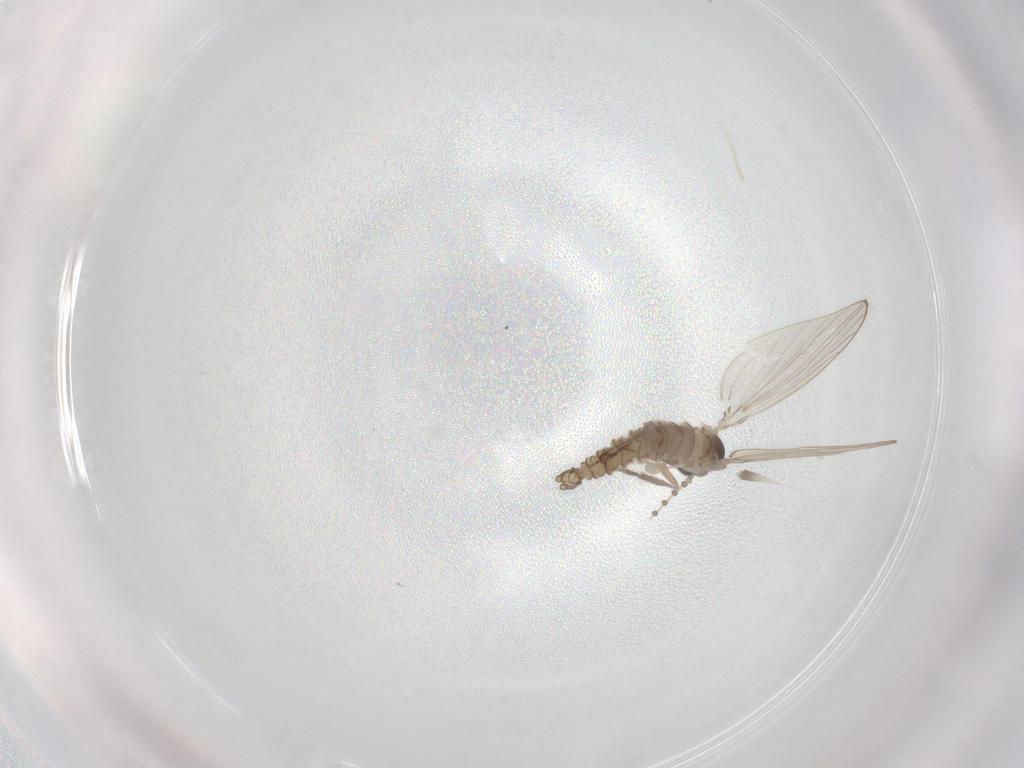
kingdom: Animalia
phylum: Arthropoda
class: Insecta
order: Diptera
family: Psychodidae
